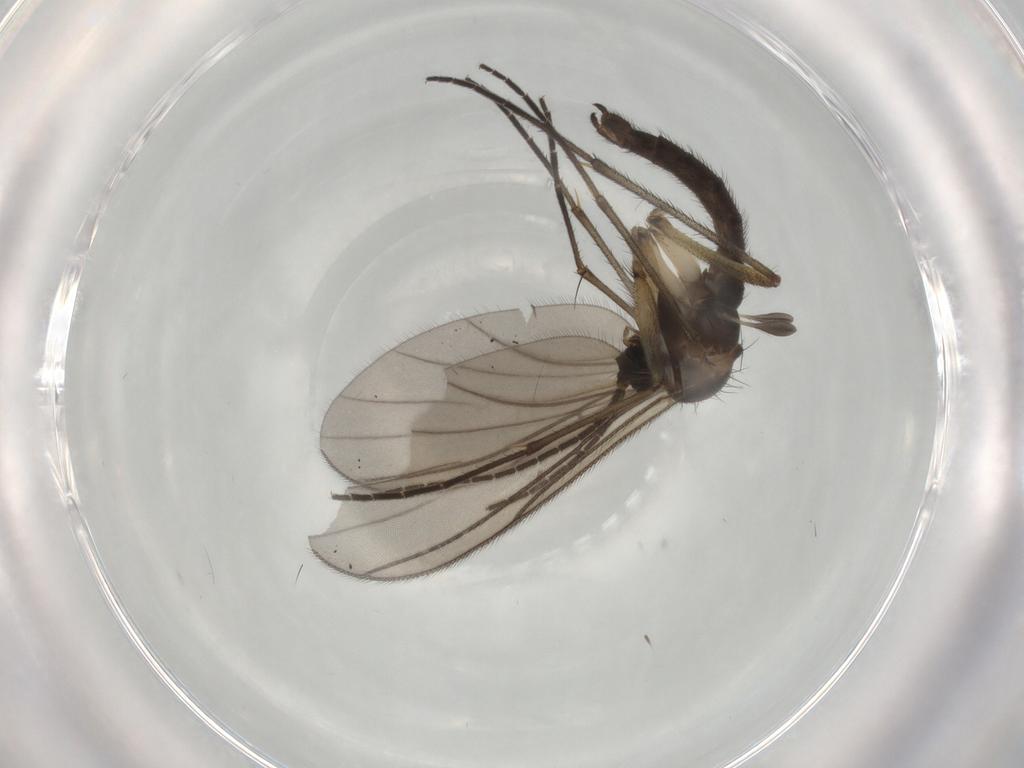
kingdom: Animalia
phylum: Arthropoda
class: Insecta
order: Diptera
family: Sciaridae
